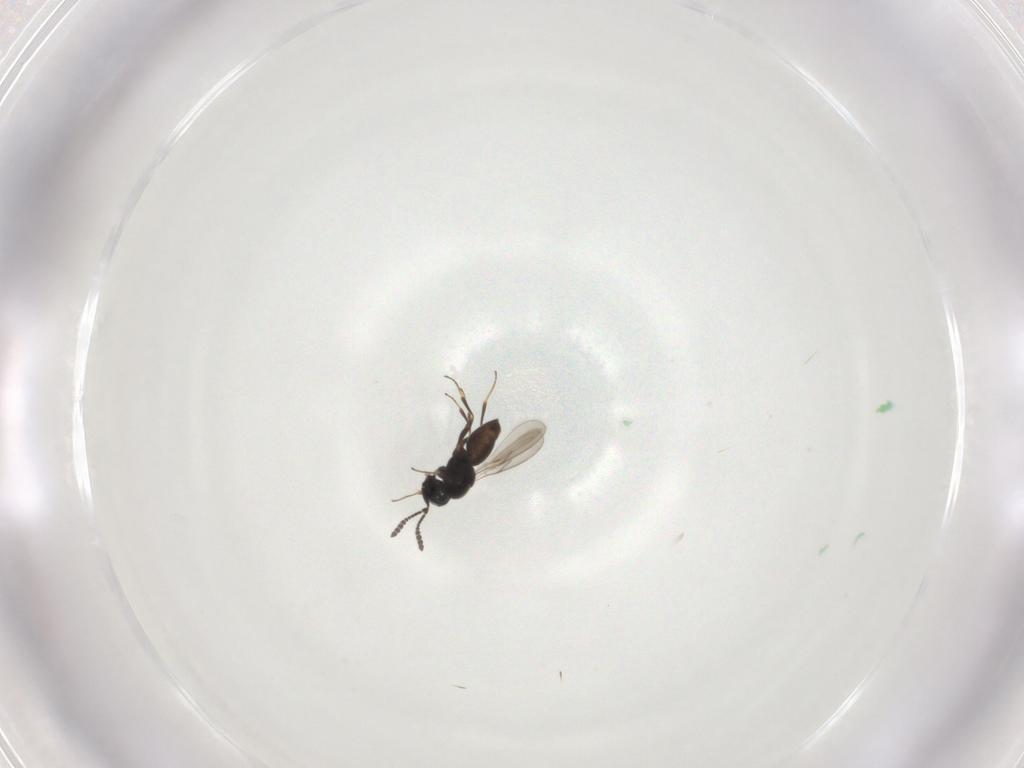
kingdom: Animalia
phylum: Arthropoda
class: Insecta
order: Hymenoptera
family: Scelionidae
